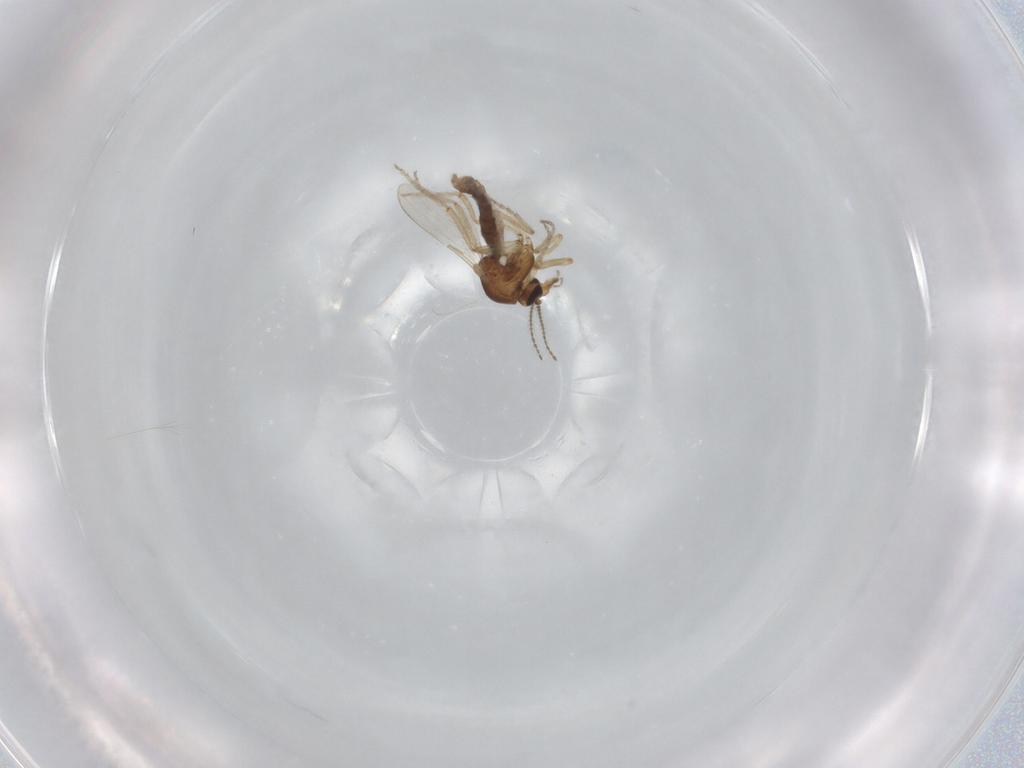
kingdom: Animalia
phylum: Arthropoda
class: Insecta
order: Diptera
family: Ceratopogonidae
